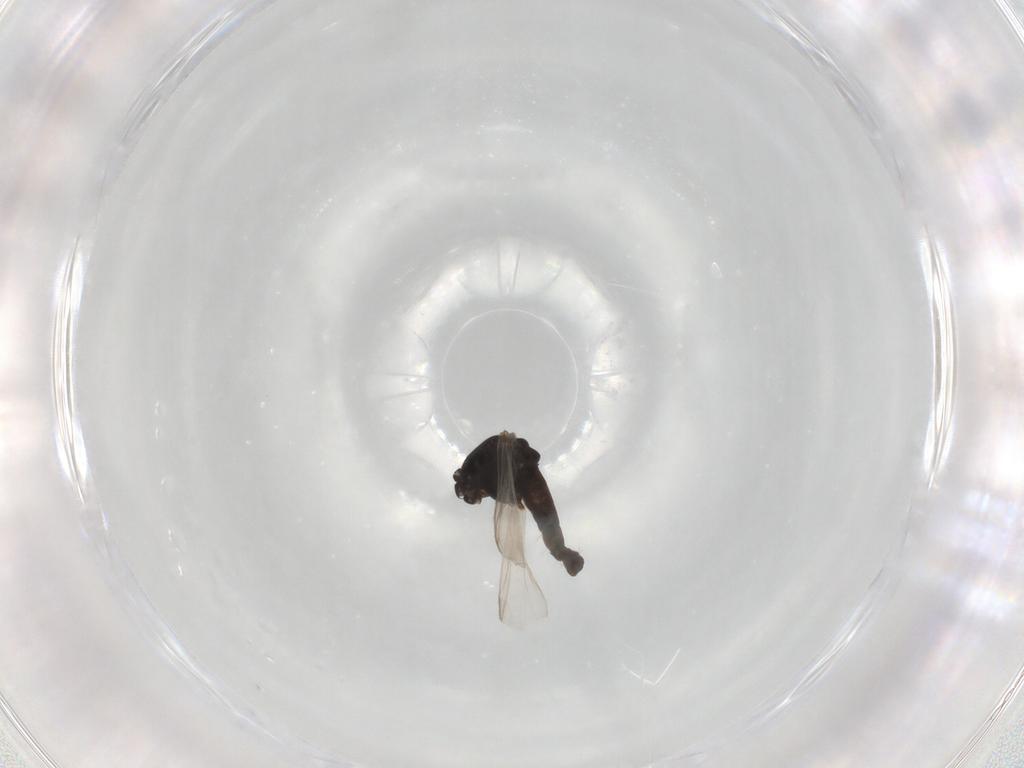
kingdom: Animalia
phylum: Arthropoda
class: Insecta
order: Diptera
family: Chironomidae
